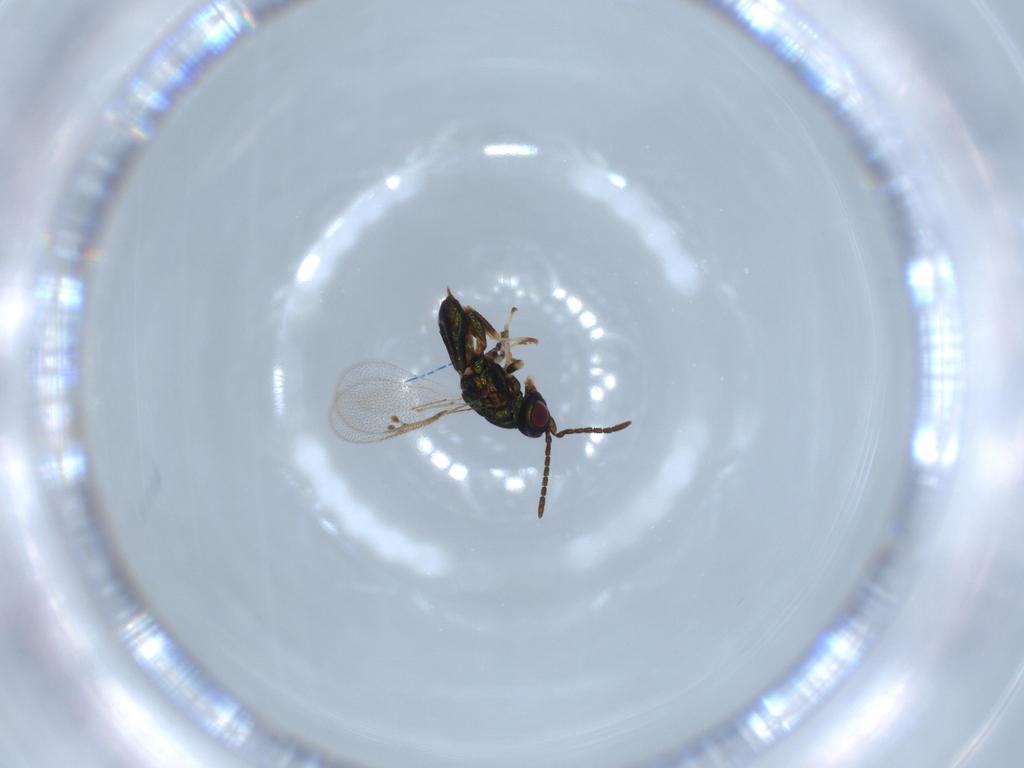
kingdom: Animalia
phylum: Arthropoda
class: Insecta
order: Hymenoptera
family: Pteromalidae
